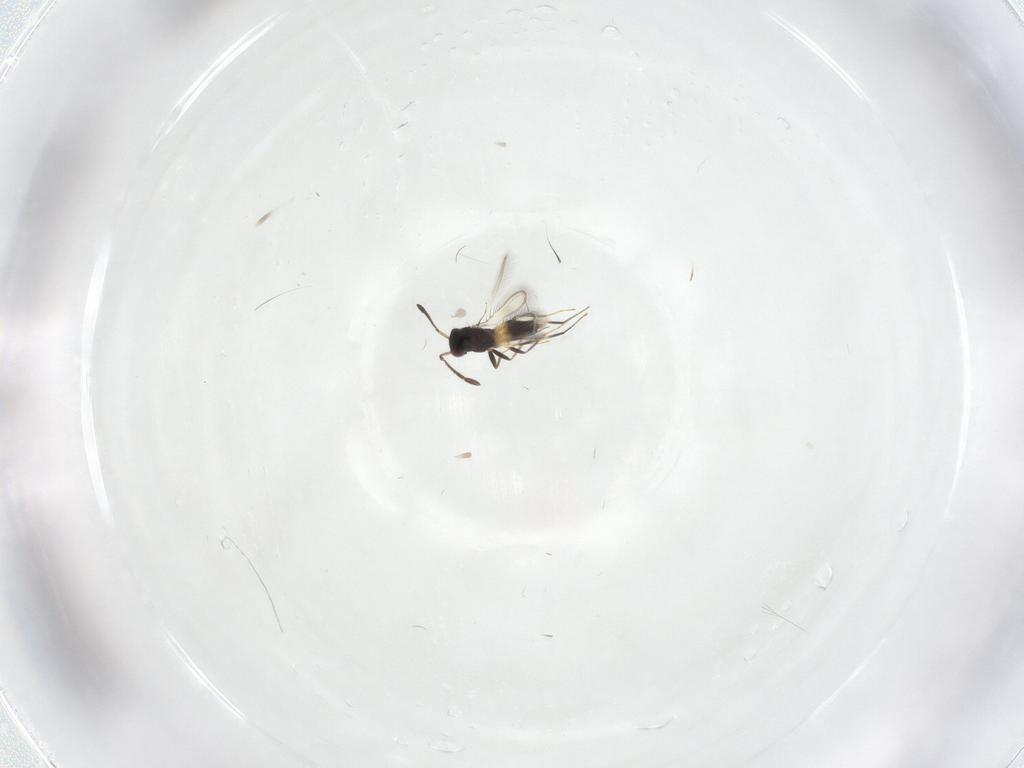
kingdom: Animalia
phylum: Arthropoda
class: Insecta
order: Hymenoptera
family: Mymaridae
